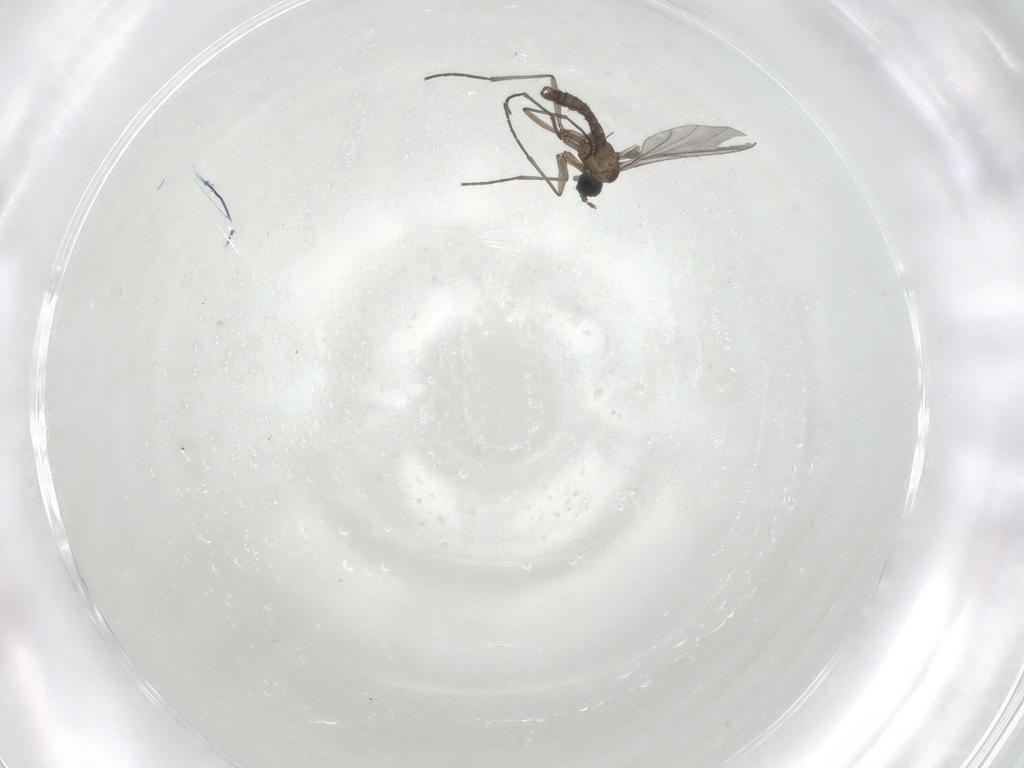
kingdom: Animalia
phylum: Arthropoda
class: Insecta
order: Diptera
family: Sciaridae
